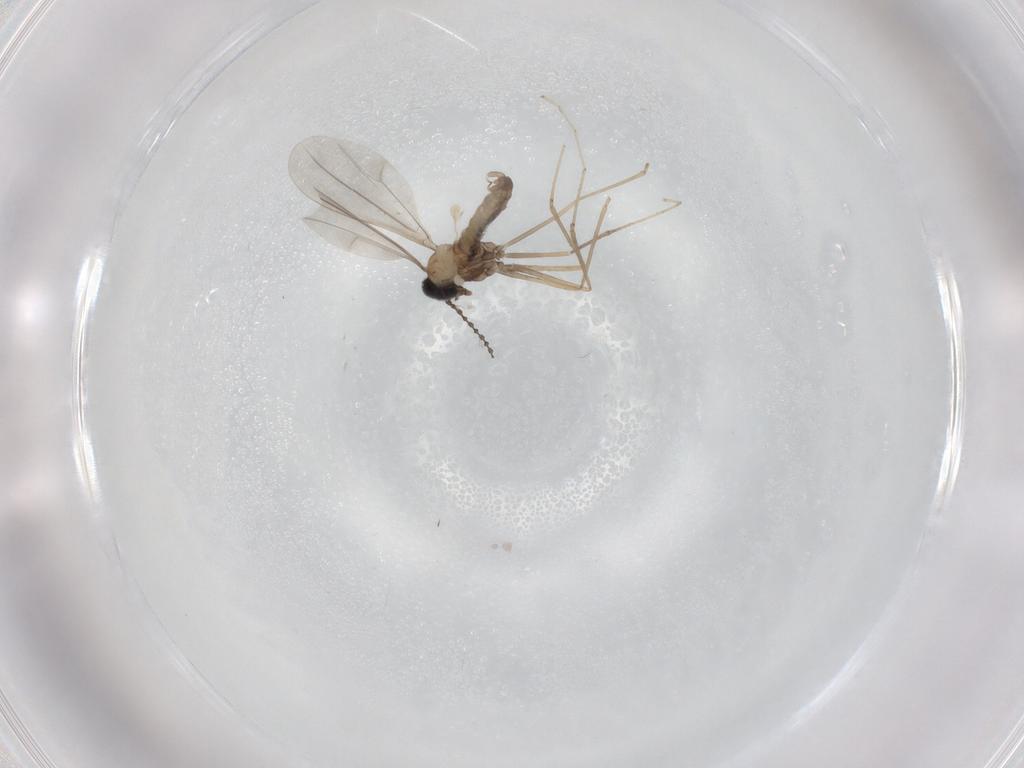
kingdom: Animalia
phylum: Arthropoda
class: Insecta
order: Diptera
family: Cecidomyiidae
